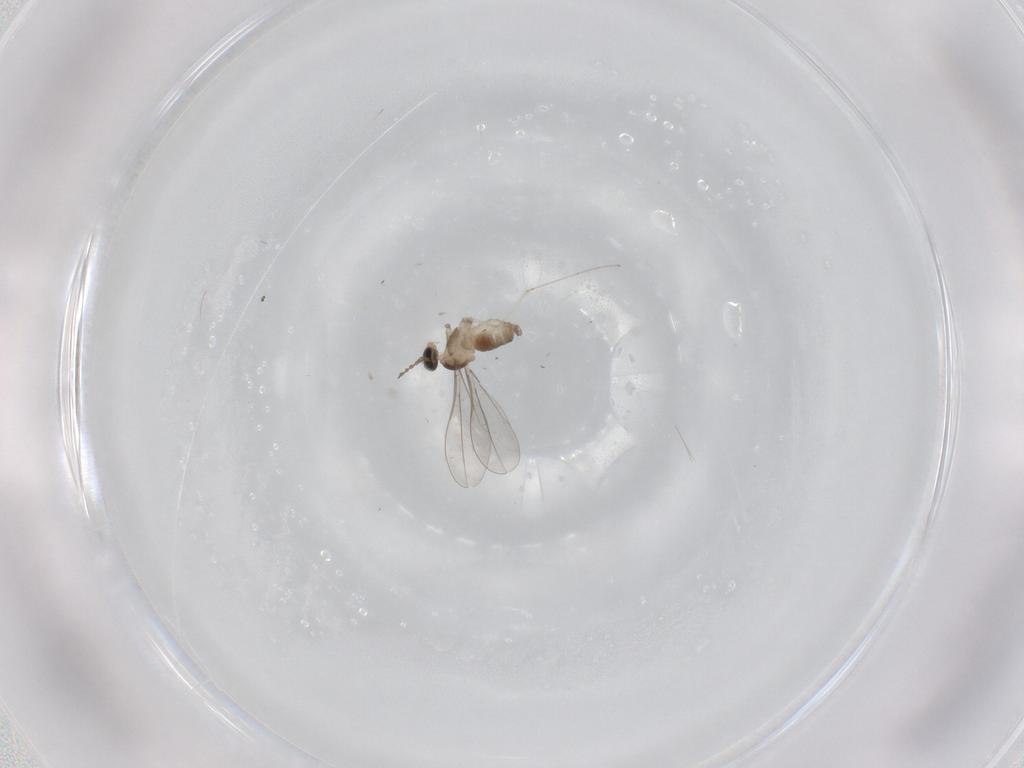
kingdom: Animalia
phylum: Arthropoda
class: Insecta
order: Diptera
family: Cecidomyiidae
